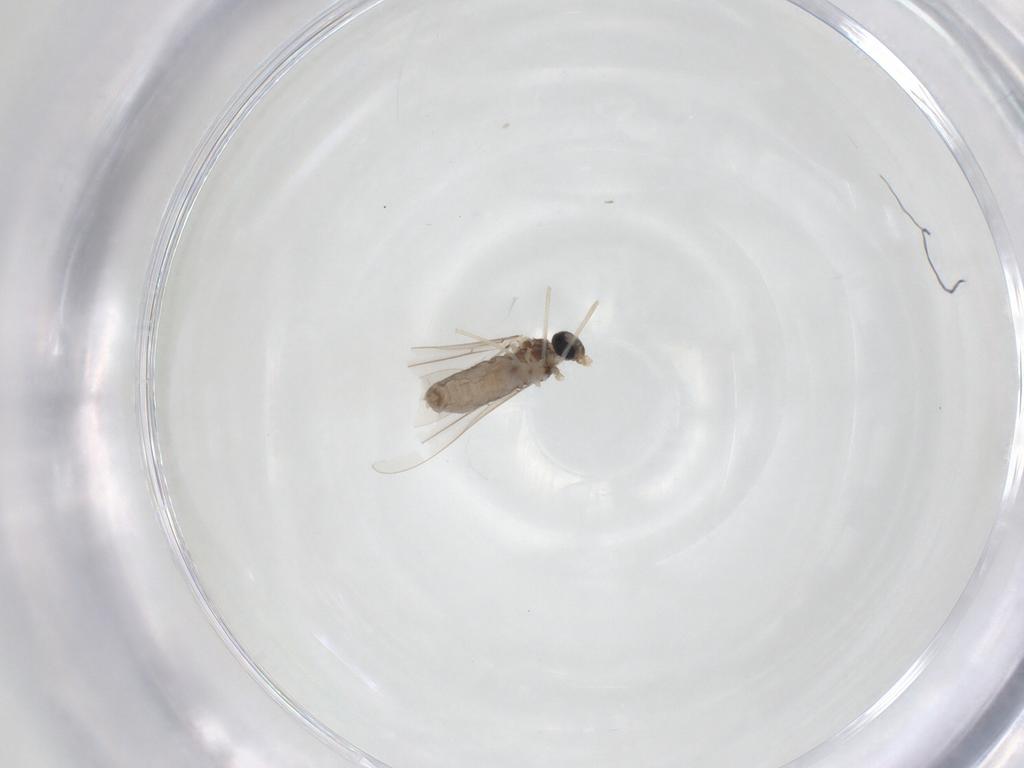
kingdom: Animalia
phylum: Arthropoda
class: Insecta
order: Diptera
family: Cecidomyiidae
